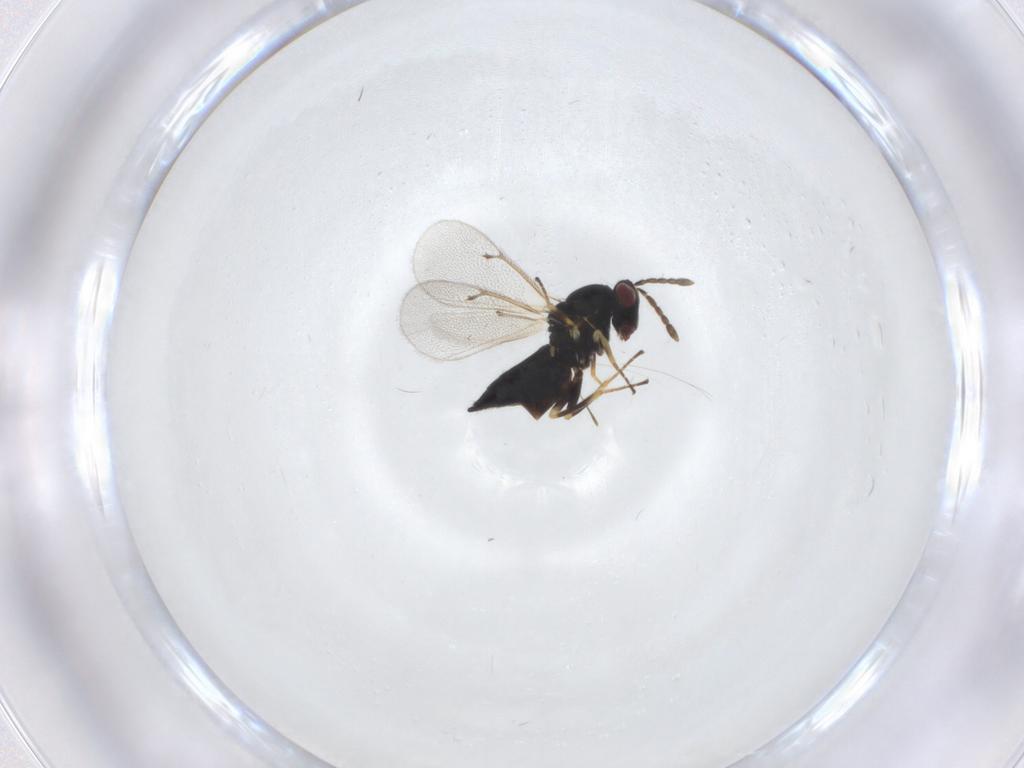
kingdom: Animalia
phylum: Arthropoda
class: Insecta
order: Hymenoptera
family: Eulophidae
